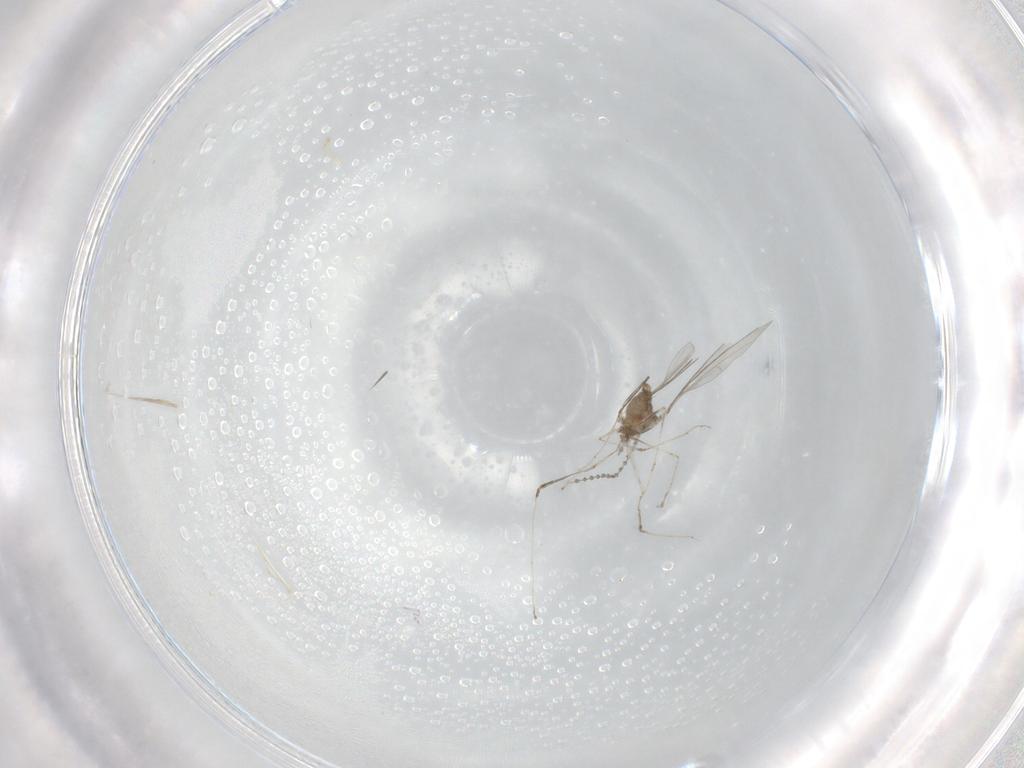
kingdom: Animalia
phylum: Arthropoda
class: Insecta
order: Diptera
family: Cecidomyiidae
